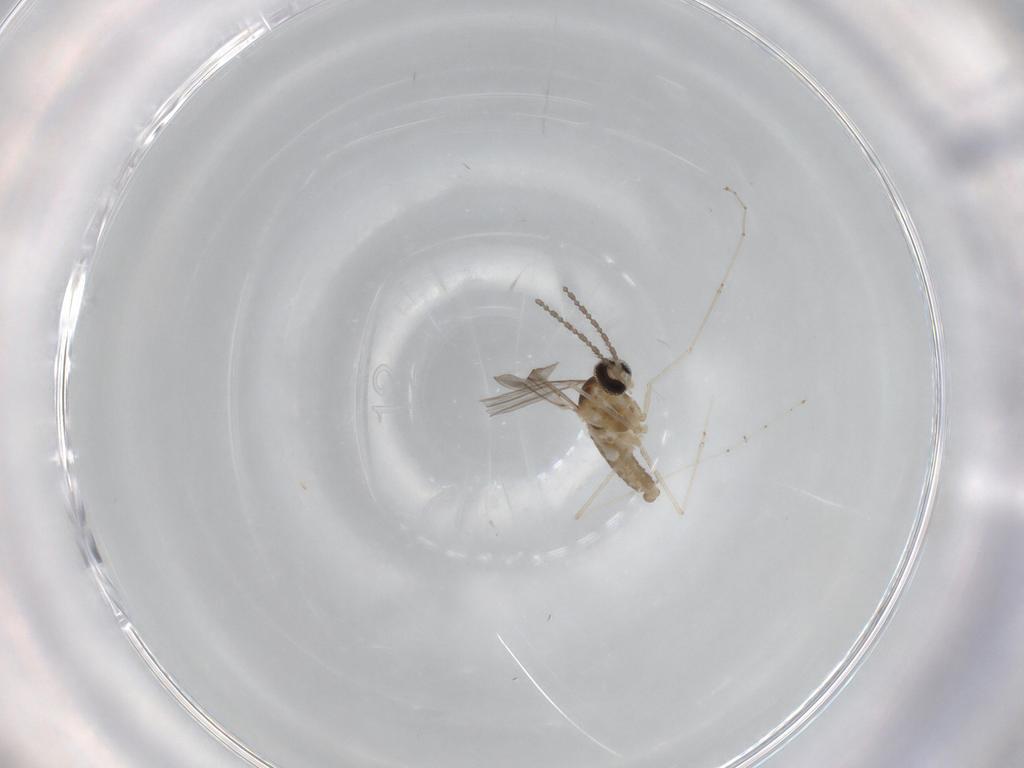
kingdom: Animalia
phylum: Arthropoda
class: Insecta
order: Diptera
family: Cecidomyiidae
